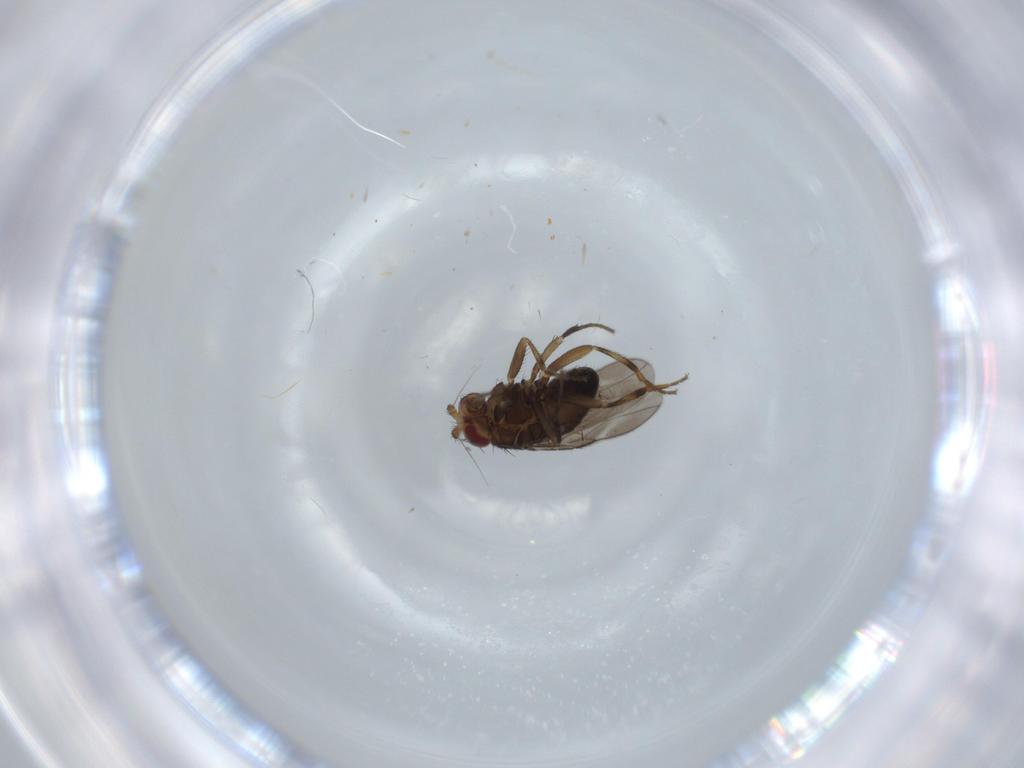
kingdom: Animalia
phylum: Arthropoda
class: Insecta
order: Diptera
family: Sphaeroceridae
